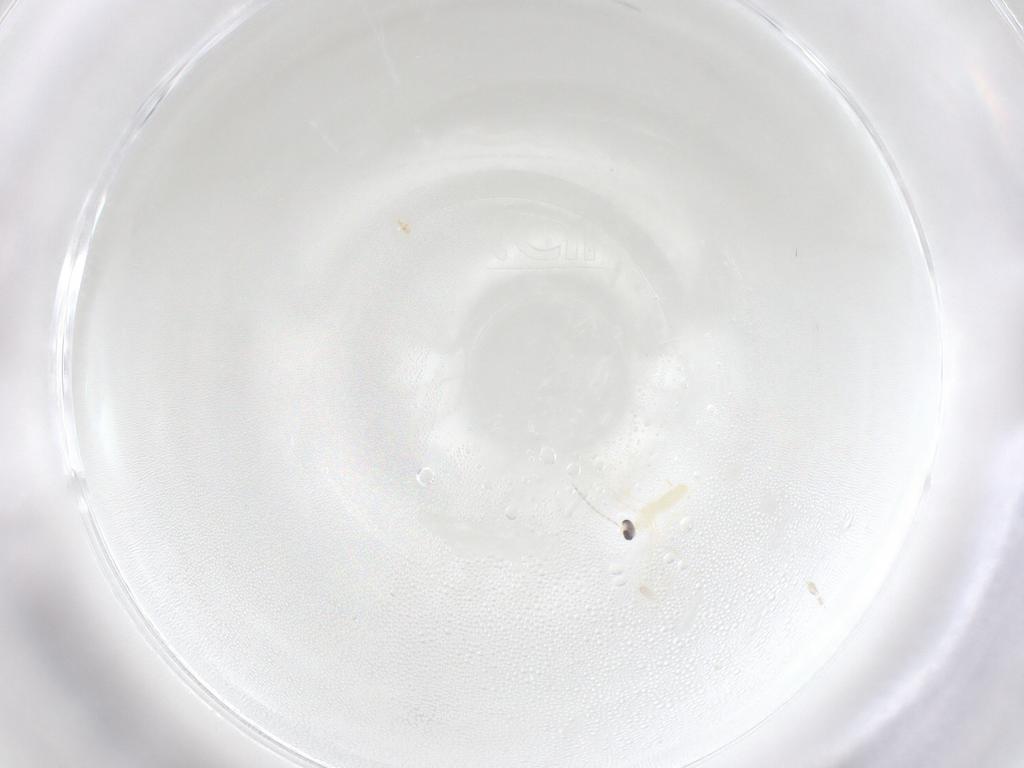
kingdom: Animalia
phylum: Arthropoda
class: Insecta
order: Diptera
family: Cecidomyiidae
